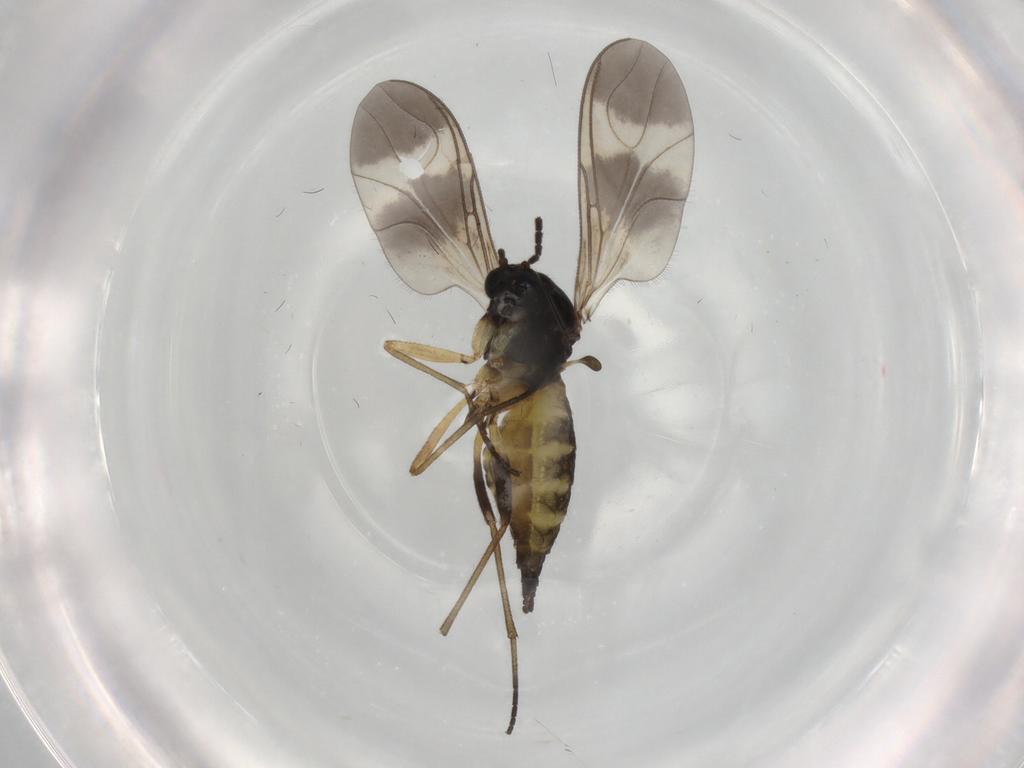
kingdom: Animalia
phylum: Arthropoda
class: Insecta
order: Diptera
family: Sciaridae
